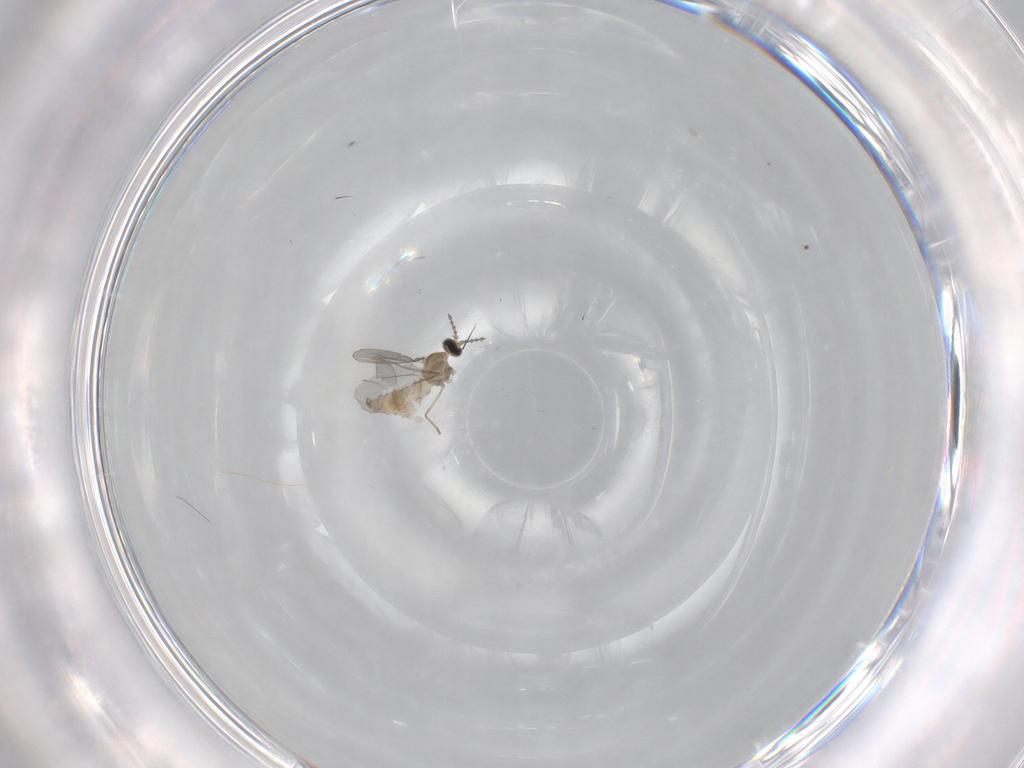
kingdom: Animalia
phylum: Arthropoda
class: Insecta
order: Diptera
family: Cecidomyiidae
